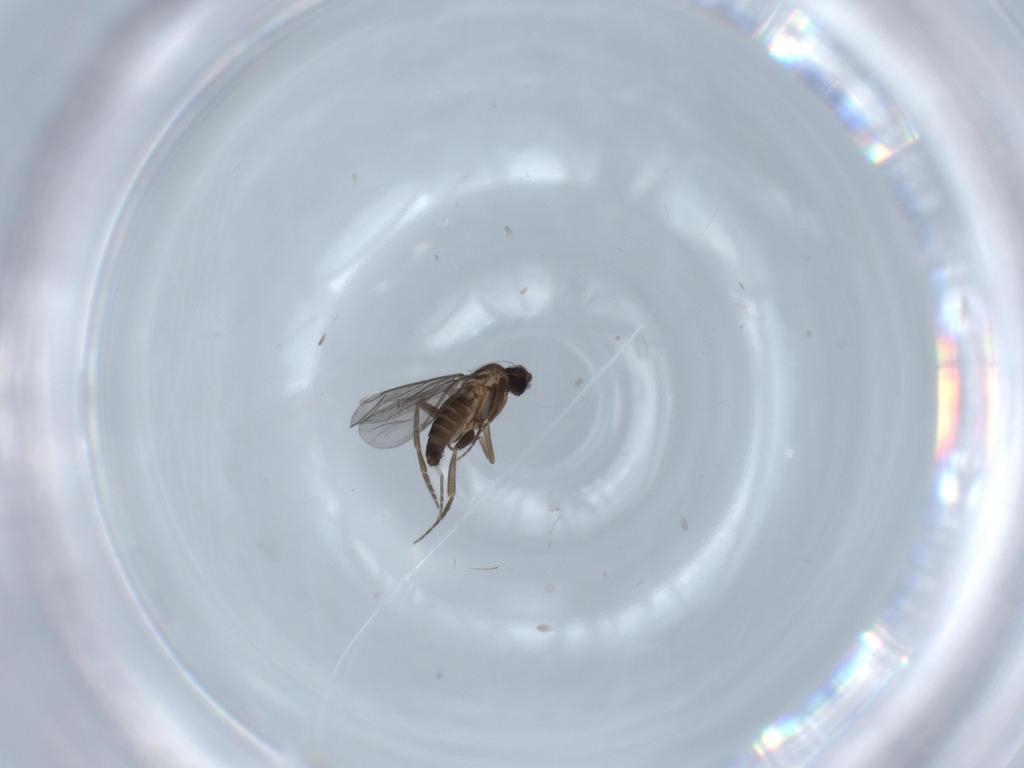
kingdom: Animalia
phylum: Arthropoda
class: Insecta
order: Diptera
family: Phoridae
